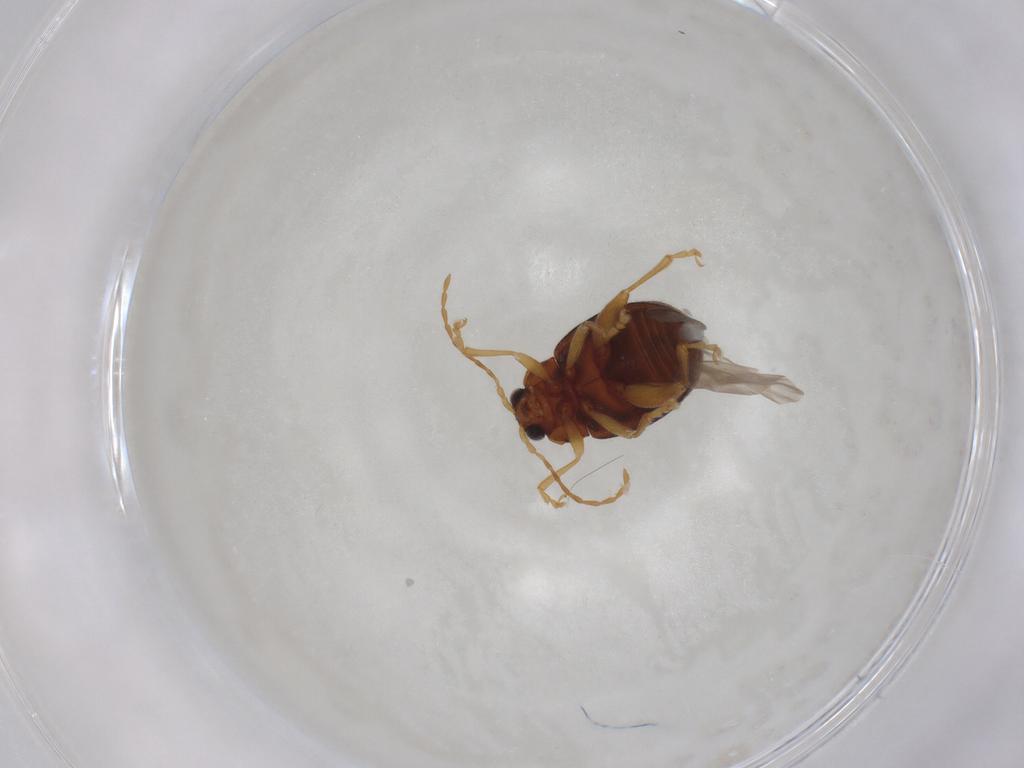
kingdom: Animalia
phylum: Arthropoda
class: Insecta
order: Coleoptera
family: Chrysomelidae
